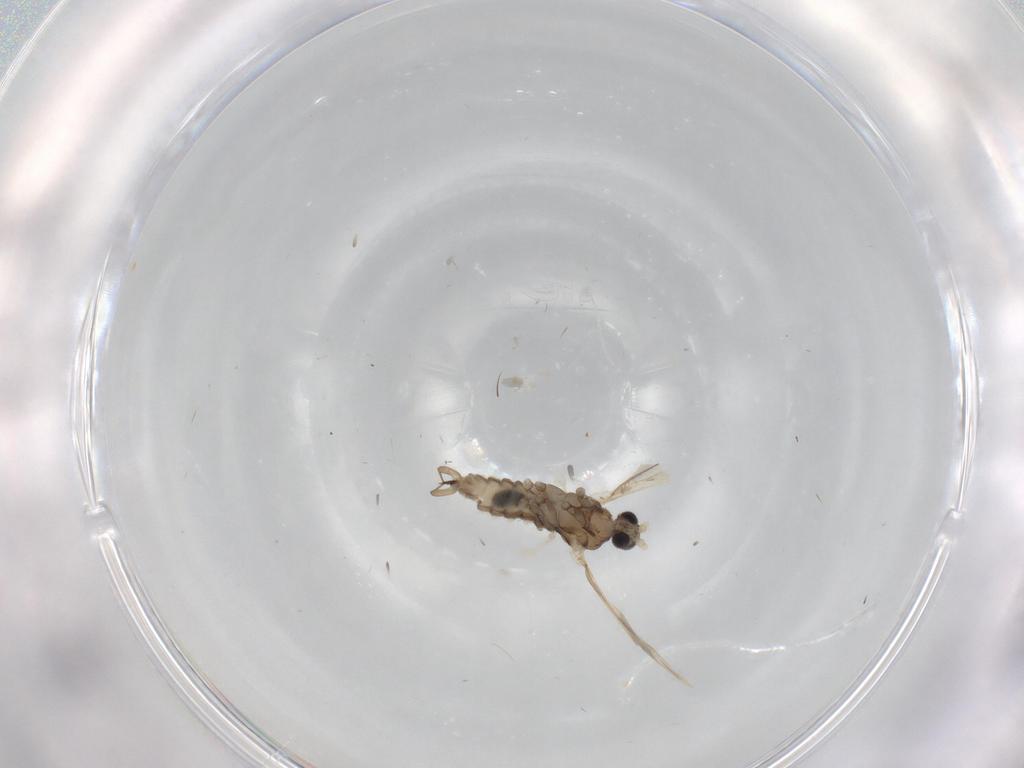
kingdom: Animalia
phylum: Arthropoda
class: Insecta
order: Diptera
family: Cecidomyiidae
